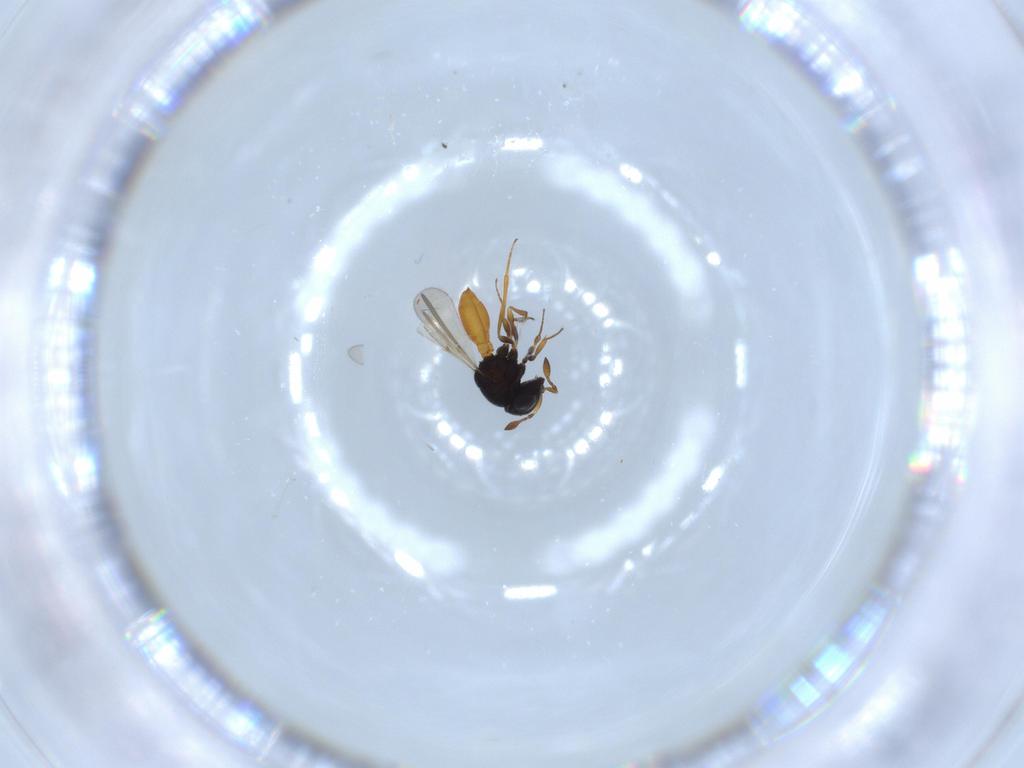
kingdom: Animalia
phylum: Arthropoda
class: Insecta
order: Hymenoptera
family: Scelionidae
